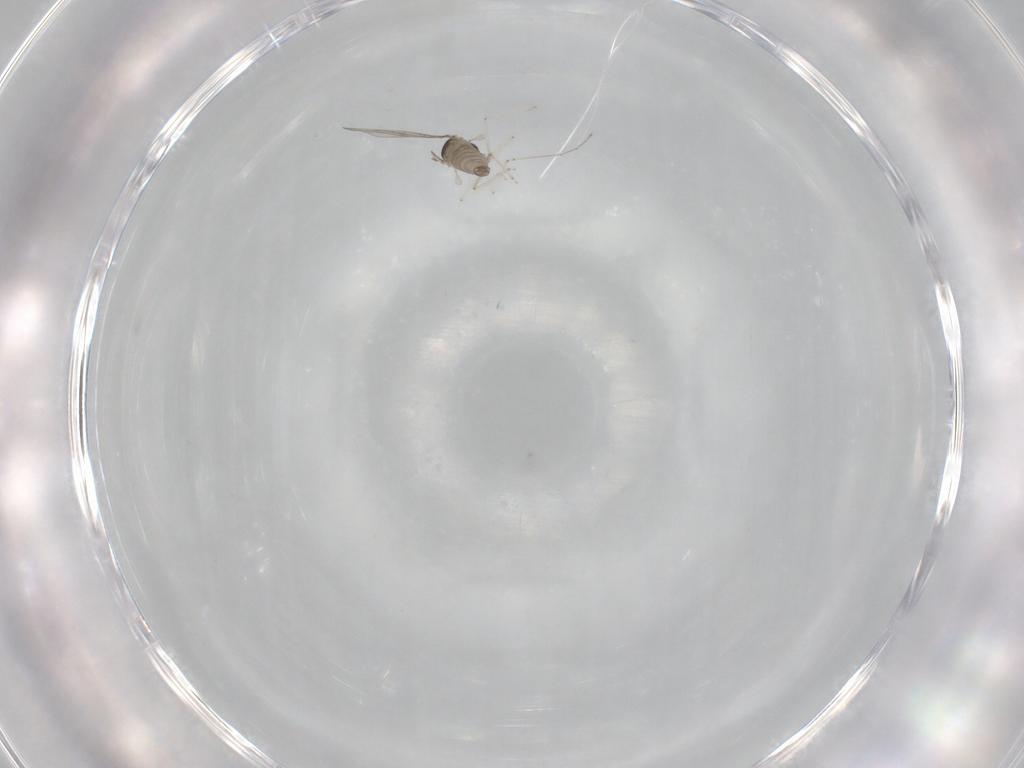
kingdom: Animalia
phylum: Arthropoda
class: Insecta
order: Diptera
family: Cecidomyiidae
